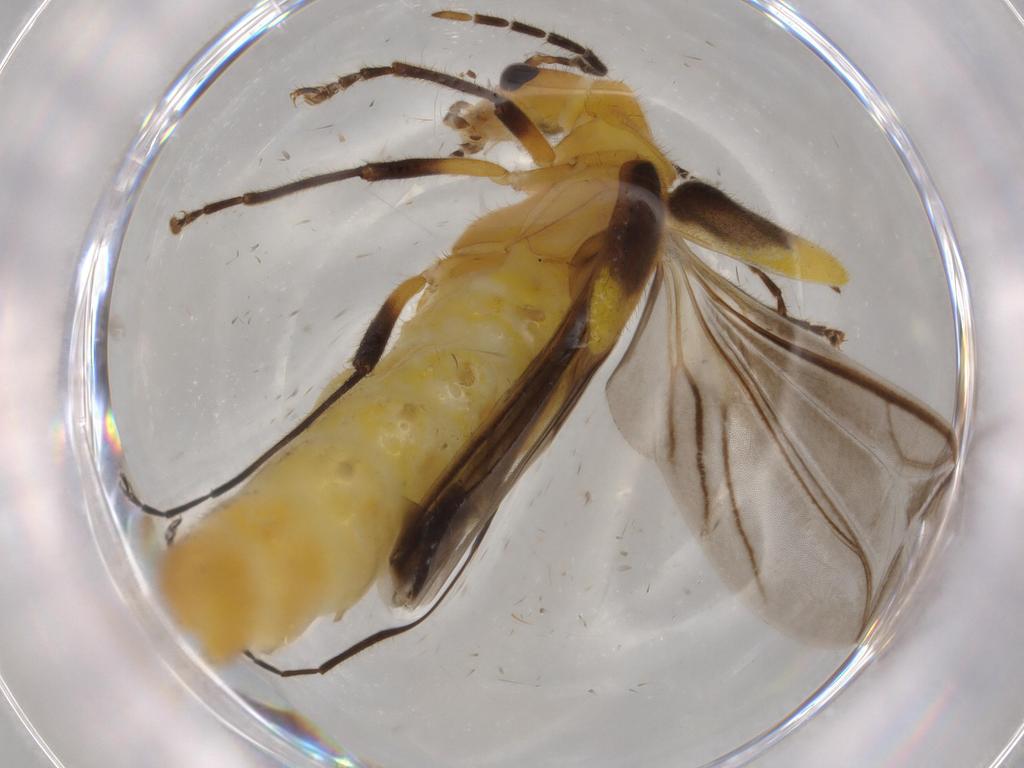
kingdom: Animalia
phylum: Arthropoda
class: Insecta
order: Coleoptera
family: Cantharidae
